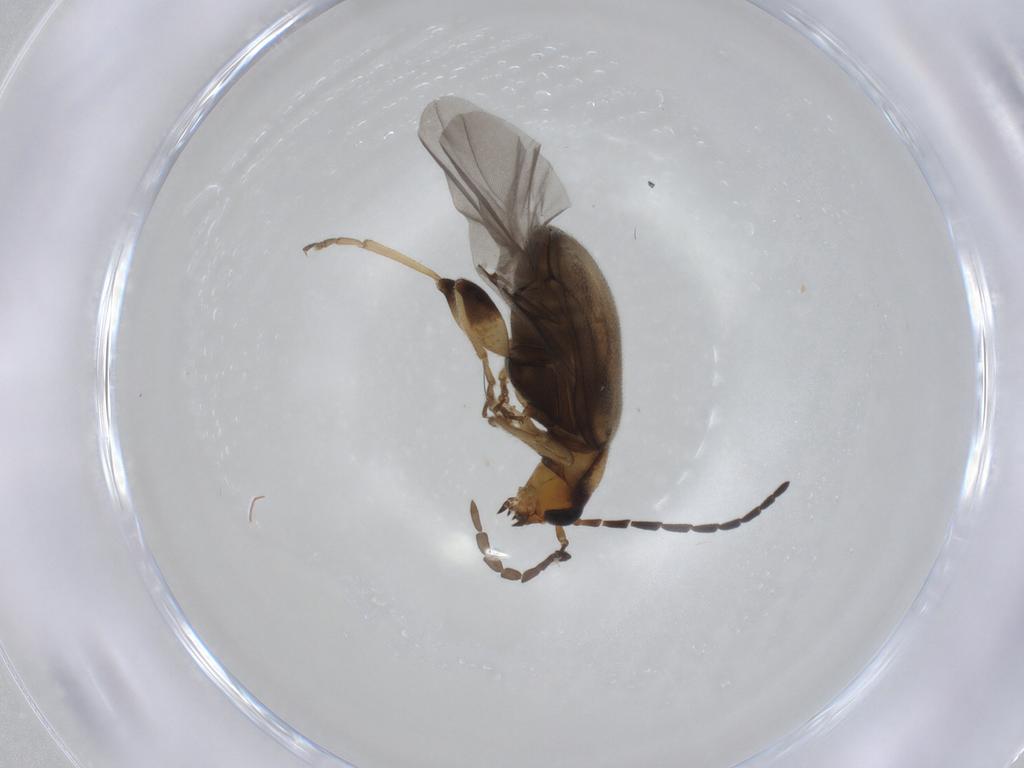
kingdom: Animalia
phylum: Arthropoda
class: Insecta
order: Coleoptera
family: Chrysomelidae
